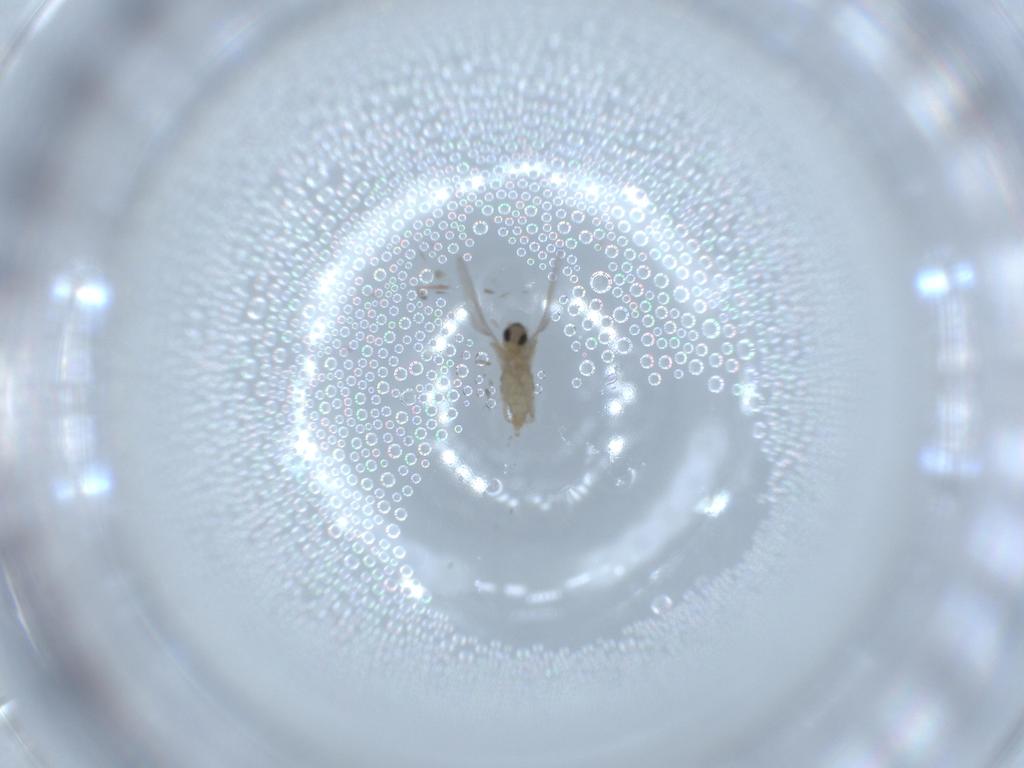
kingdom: Animalia
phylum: Arthropoda
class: Insecta
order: Diptera
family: Cecidomyiidae
